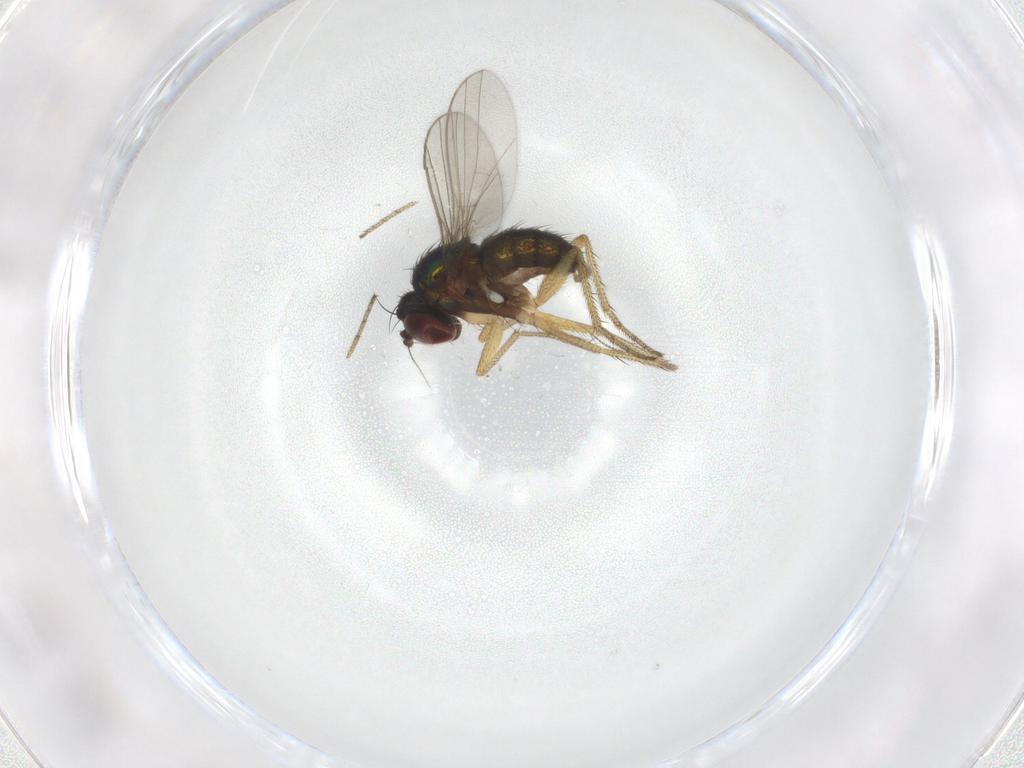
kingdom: Animalia
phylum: Arthropoda
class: Insecta
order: Diptera
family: Dolichopodidae
